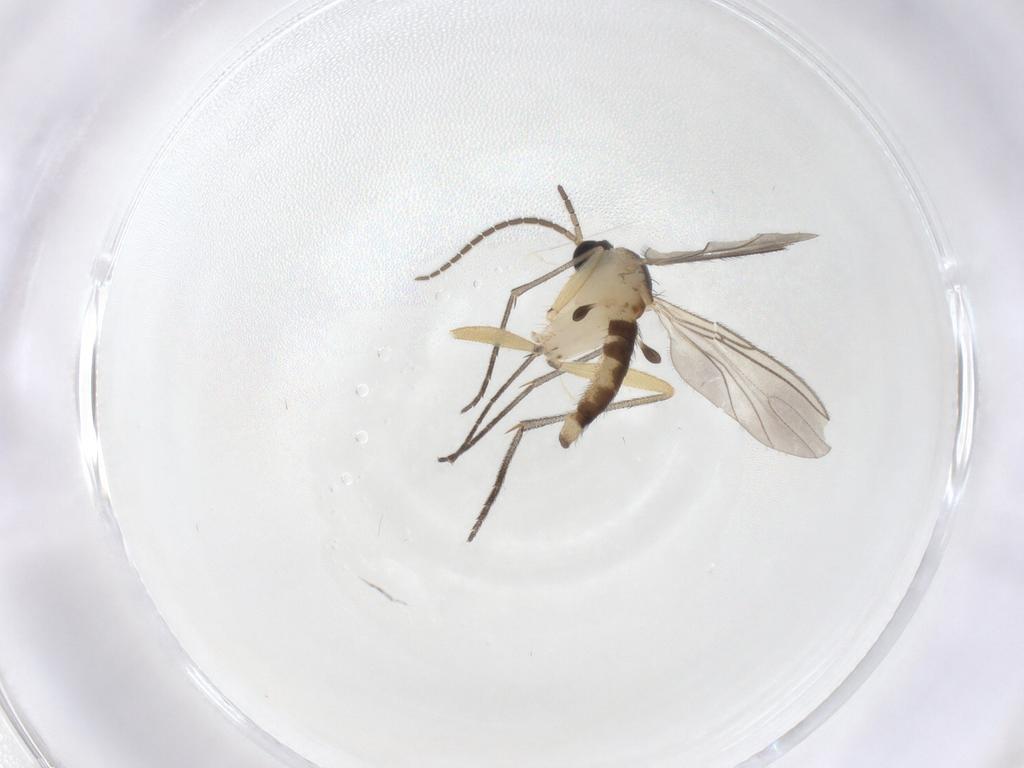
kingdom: Animalia
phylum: Arthropoda
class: Insecta
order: Diptera
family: Sciaridae
